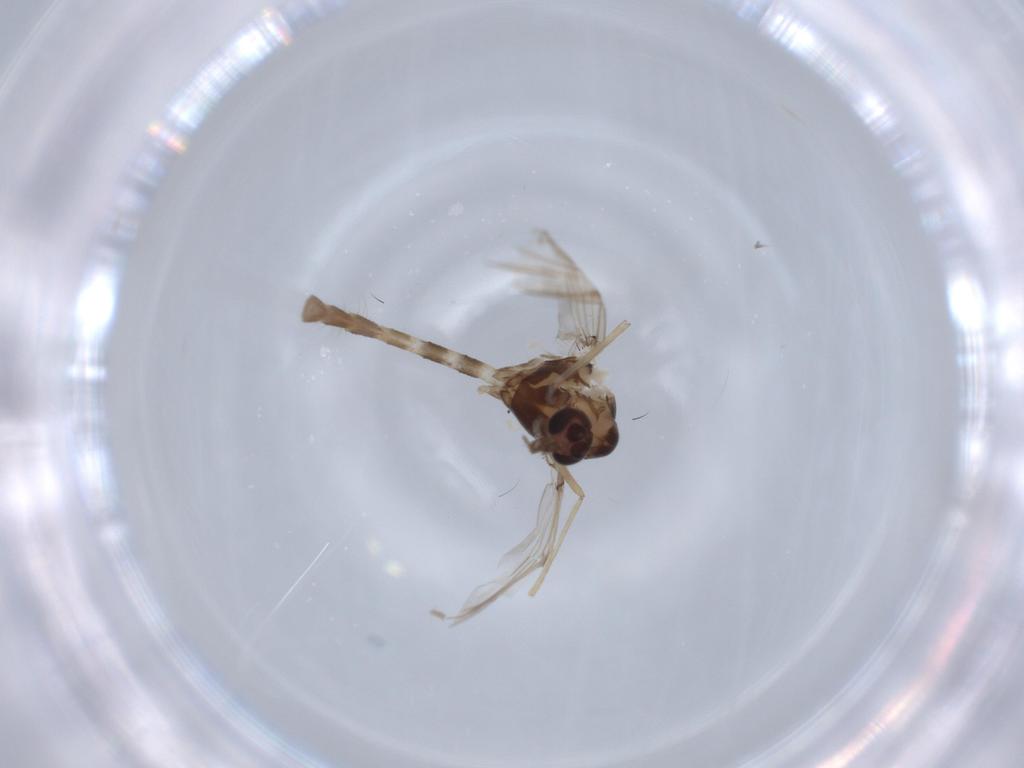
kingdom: Animalia
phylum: Arthropoda
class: Insecta
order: Diptera
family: Chironomidae
